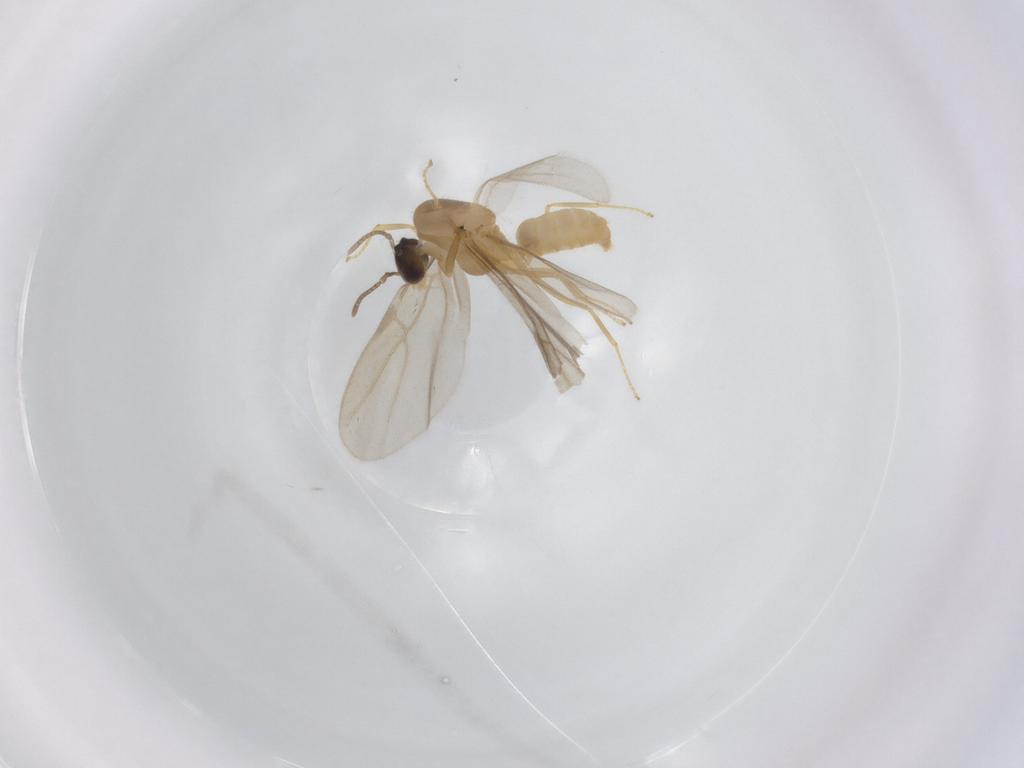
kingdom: Animalia
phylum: Arthropoda
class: Insecta
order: Hymenoptera
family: Formicidae
